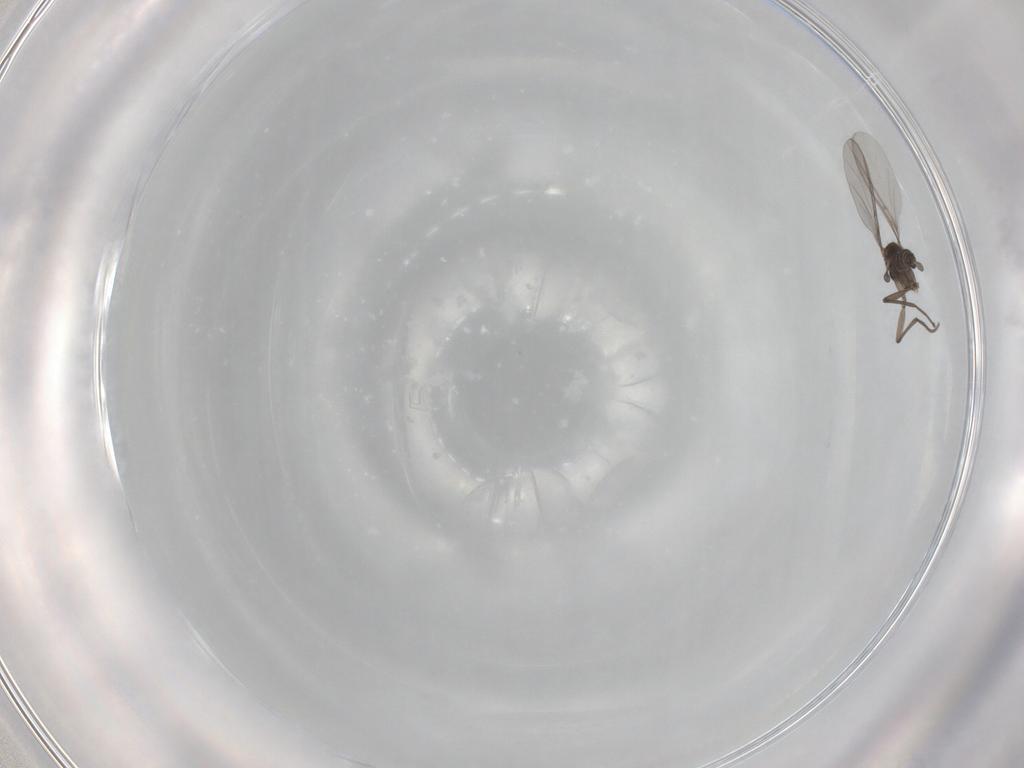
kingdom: Animalia
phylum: Arthropoda
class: Insecta
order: Diptera
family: Sciaridae
